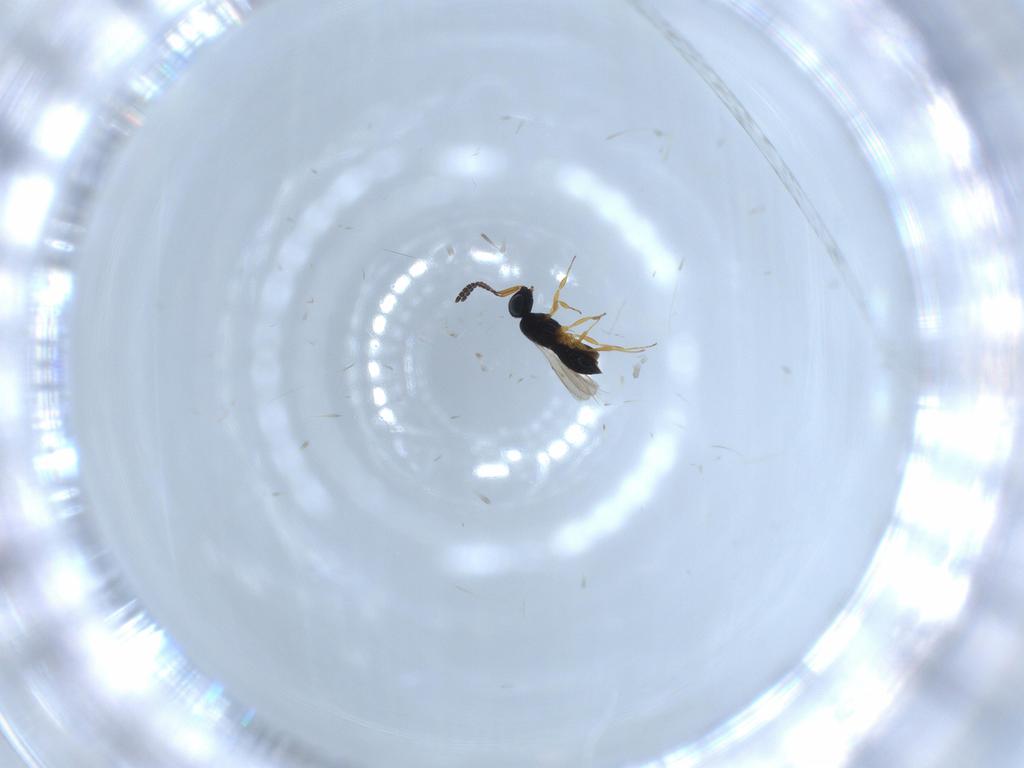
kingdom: Animalia
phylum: Arthropoda
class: Insecta
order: Hymenoptera
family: Scelionidae
